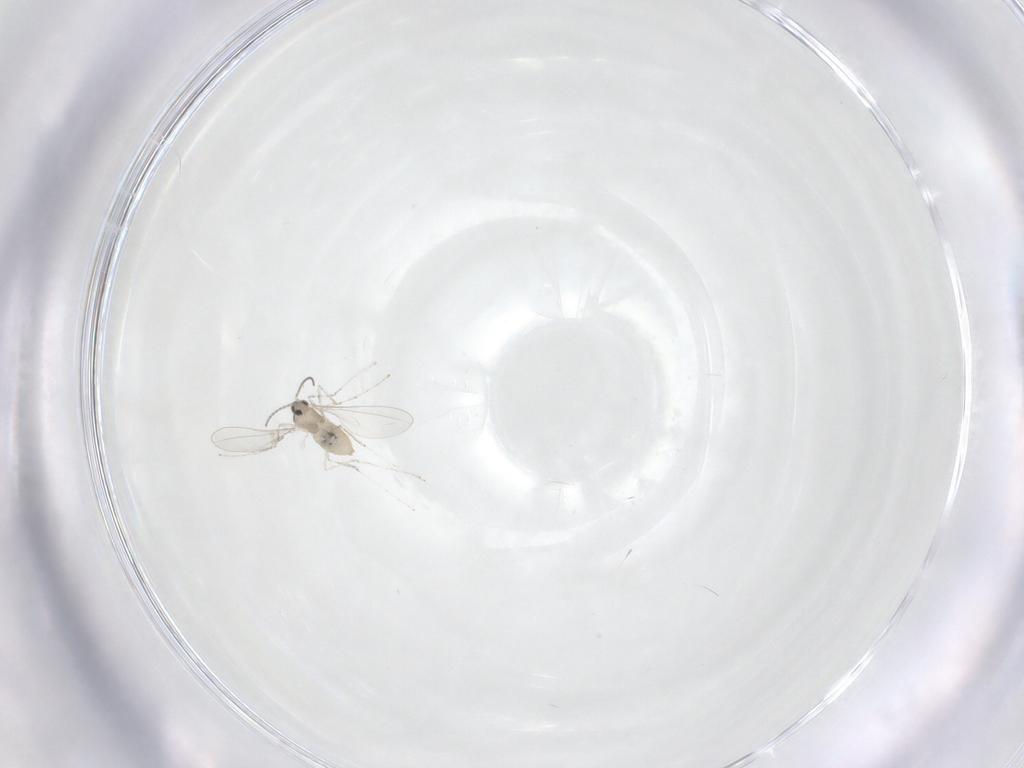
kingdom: Animalia
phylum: Arthropoda
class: Insecta
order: Diptera
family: Cecidomyiidae
